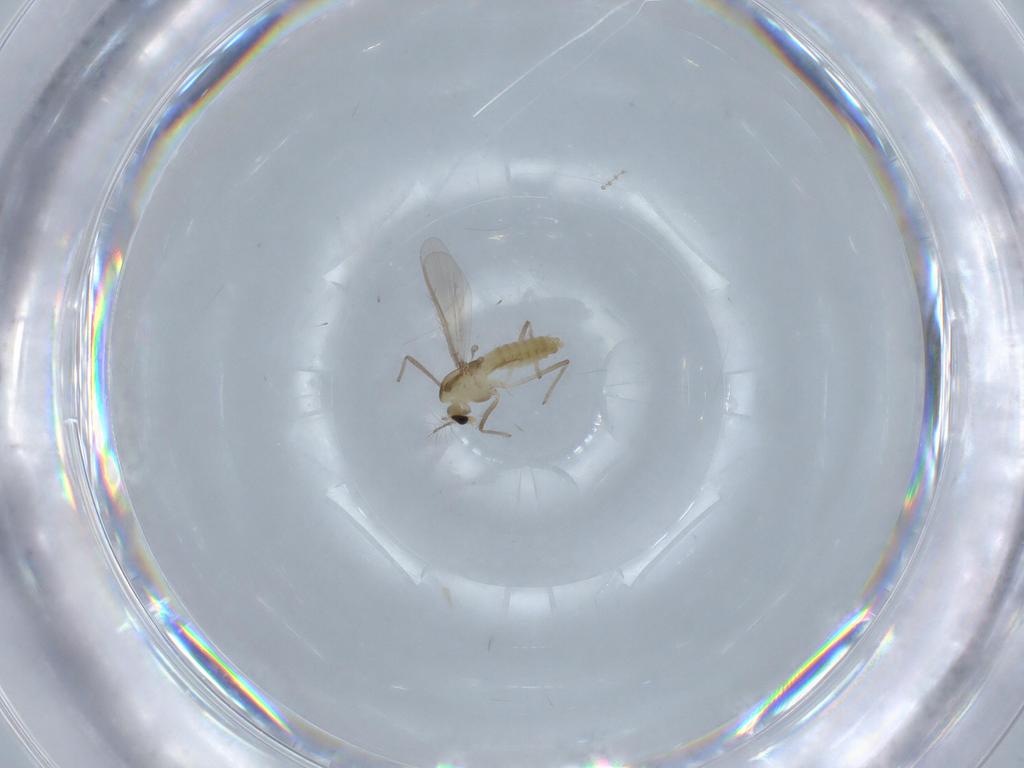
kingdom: Animalia
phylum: Arthropoda
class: Insecta
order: Diptera
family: Chironomidae
